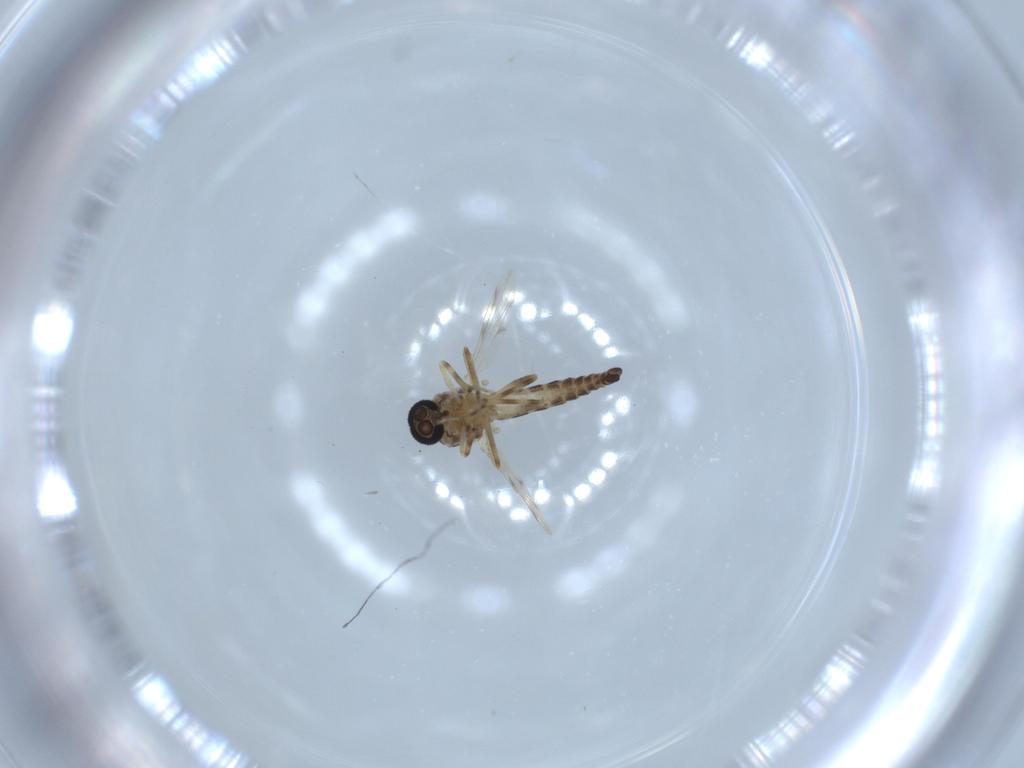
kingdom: Animalia
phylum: Arthropoda
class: Insecta
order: Diptera
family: Ceratopogonidae
